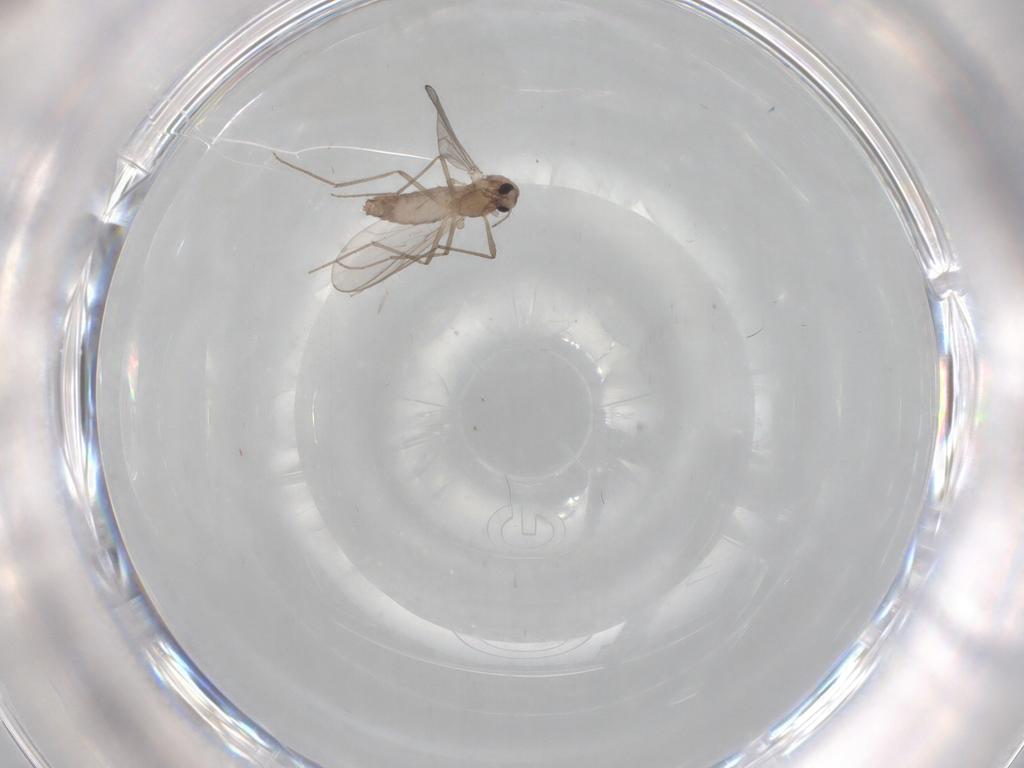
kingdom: Animalia
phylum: Arthropoda
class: Insecta
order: Diptera
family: Chironomidae
